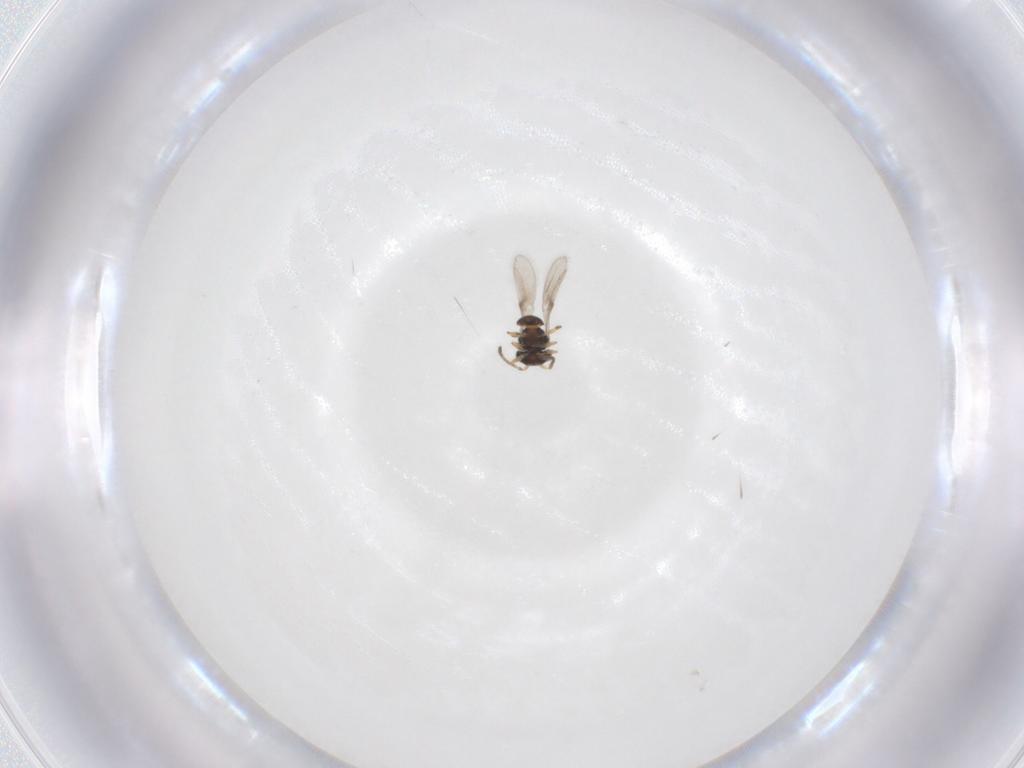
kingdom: Animalia
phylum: Arthropoda
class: Insecta
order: Hymenoptera
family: Scelionidae
